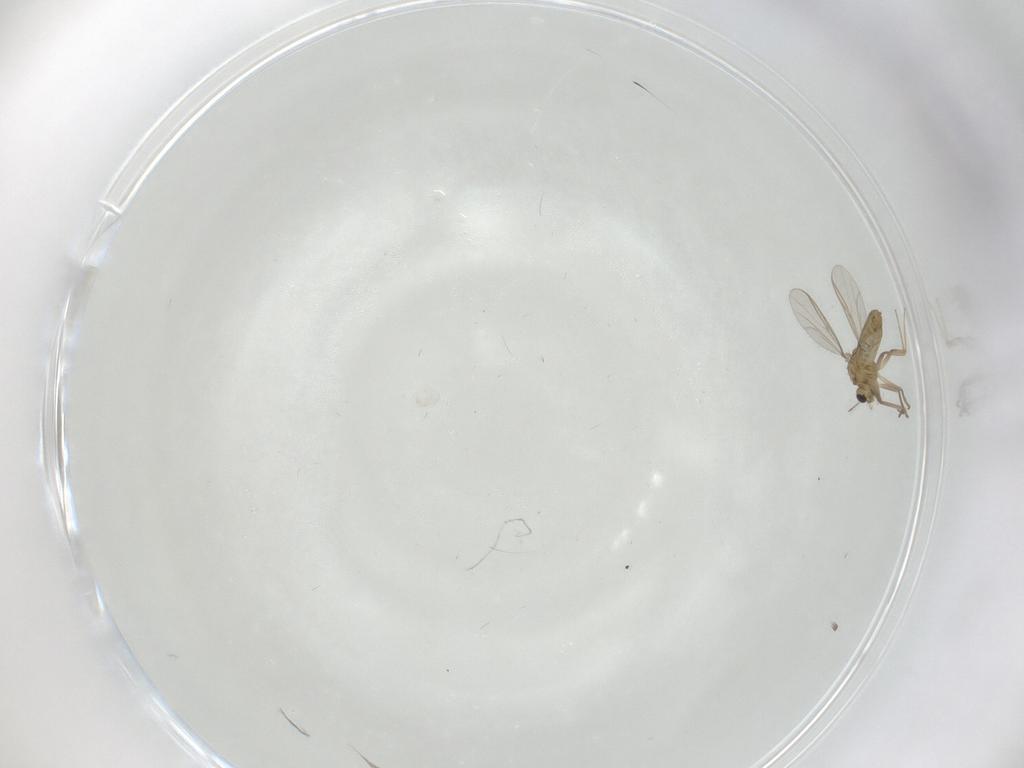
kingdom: Animalia
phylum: Arthropoda
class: Insecta
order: Diptera
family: Chironomidae
